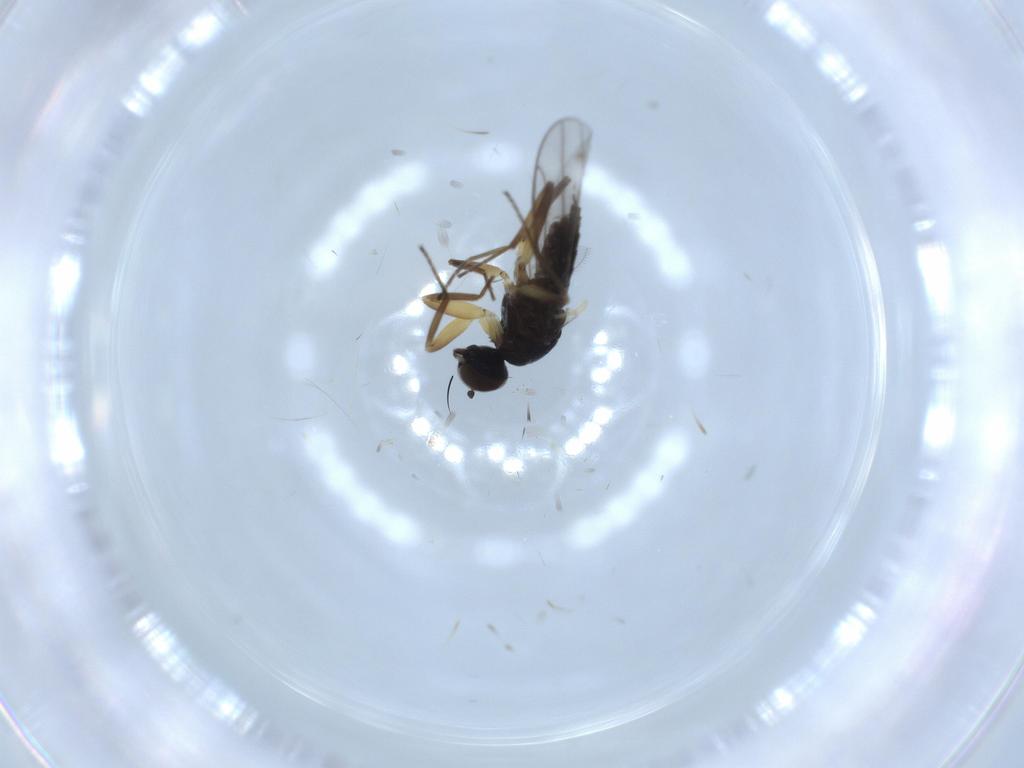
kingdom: Animalia
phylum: Arthropoda
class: Insecta
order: Diptera
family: Hybotidae
